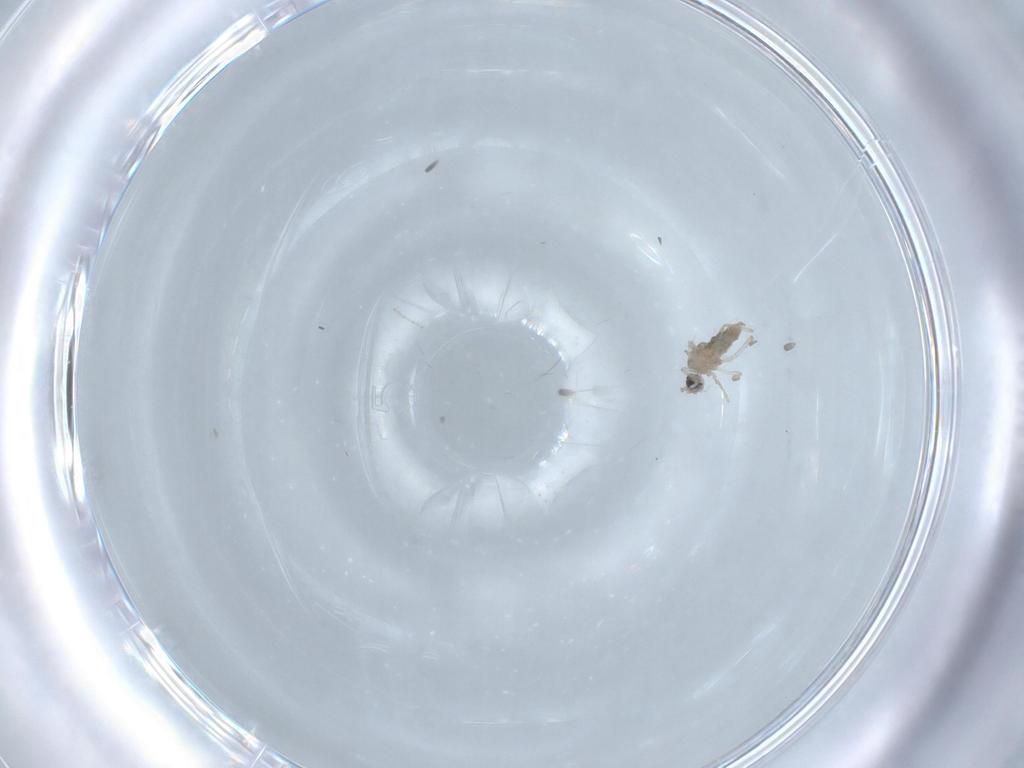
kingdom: Animalia
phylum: Arthropoda
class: Insecta
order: Diptera
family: Cecidomyiidae
